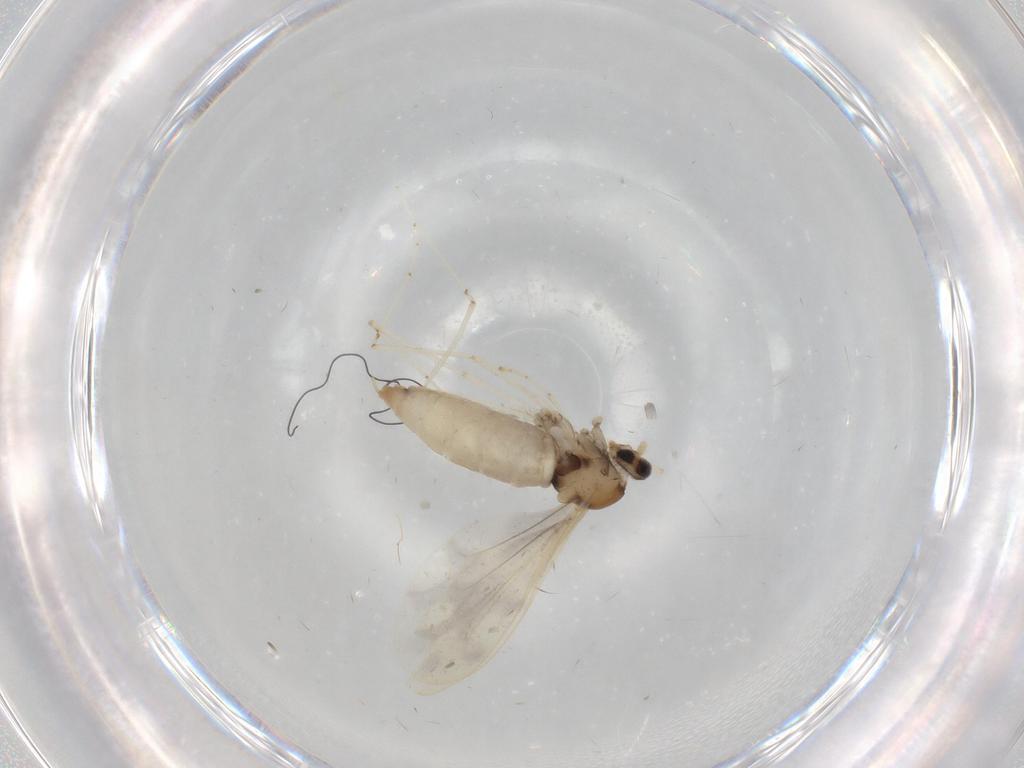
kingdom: Animalia
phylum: Arthropoda
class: Insecta
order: Diptera
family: Cecidomyiidae
